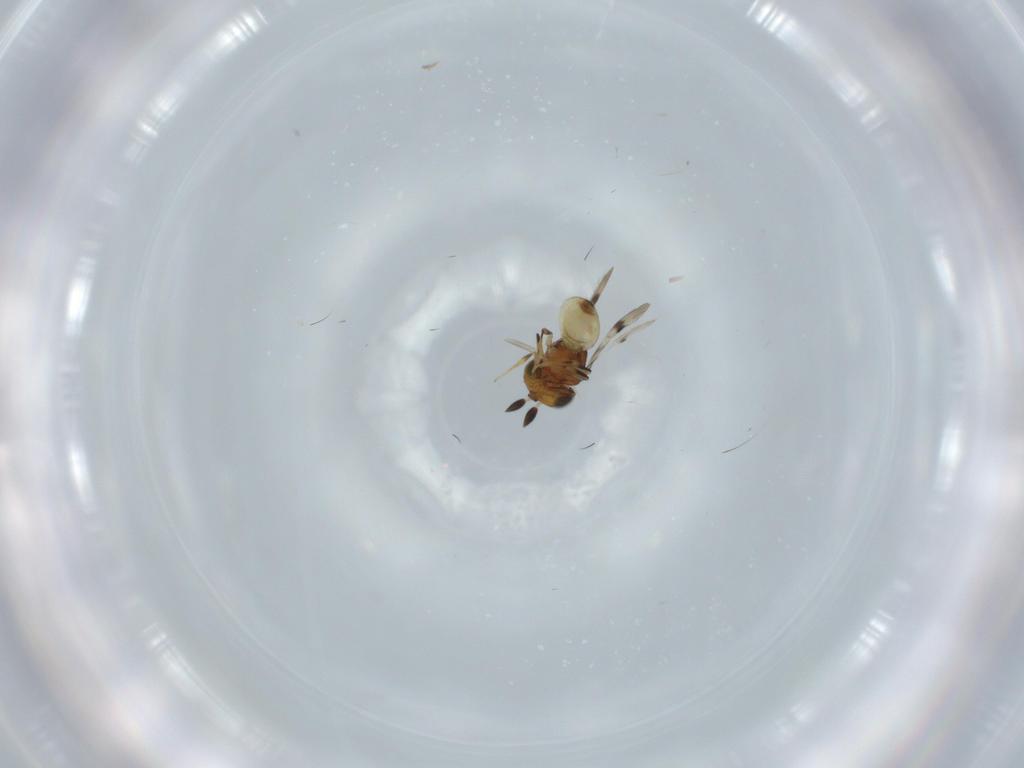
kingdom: Animalia
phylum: Arthropoda
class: Arachnida
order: Araneae
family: Pholcidae
